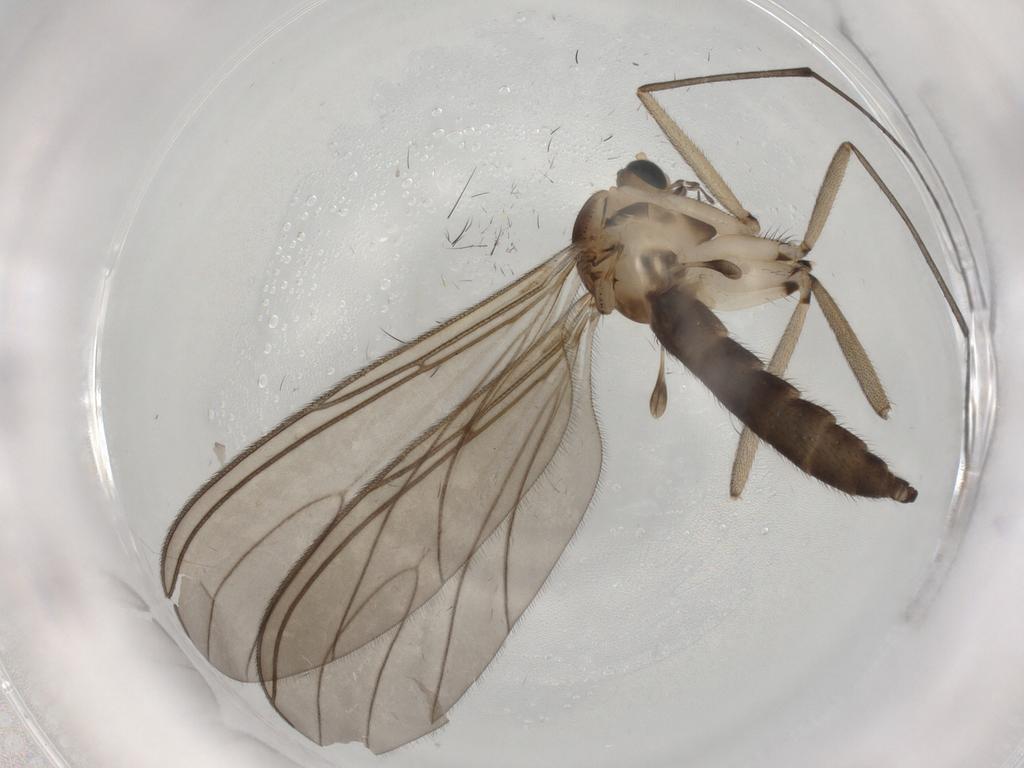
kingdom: Animalia
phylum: Arthropoda
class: Insecta
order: Diptera
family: Sciaridae
